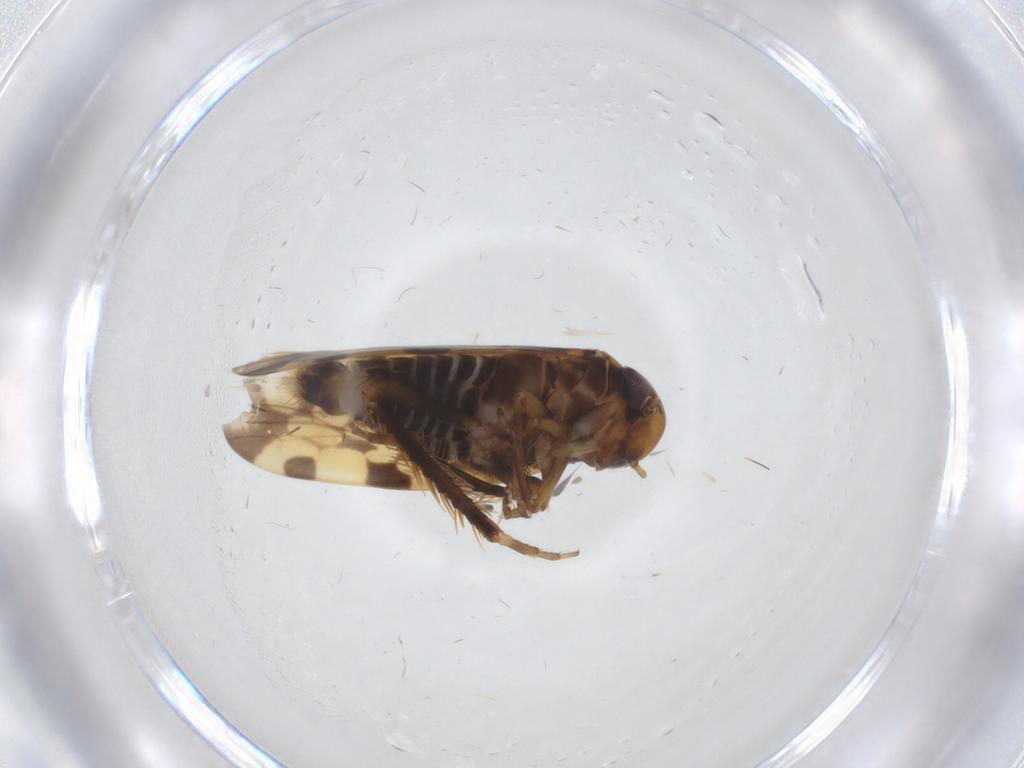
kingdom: Animalia
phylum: Arthropoda
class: Insecta
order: Hemiptera
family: Cicadellidae
